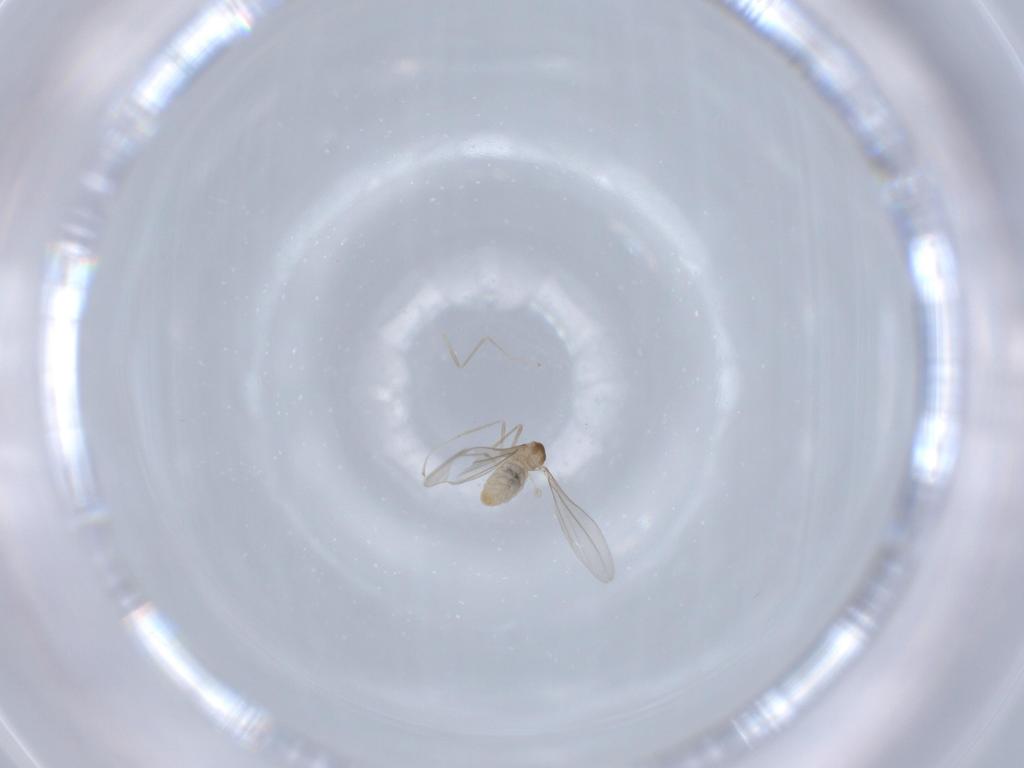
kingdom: Animalia
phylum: Arthropoda
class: Insecta
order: Diptera
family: Cecidomyiidae
